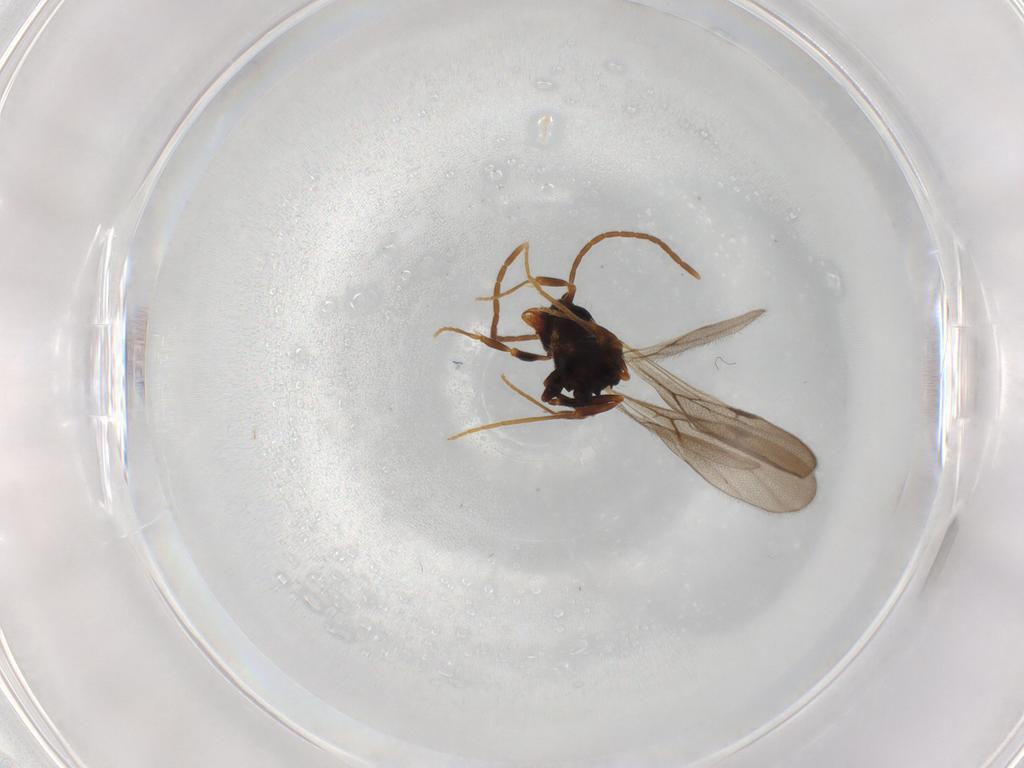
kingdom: Animalia
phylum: Arthropoda
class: Insecta
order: Hymenoptera
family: Formicidae
